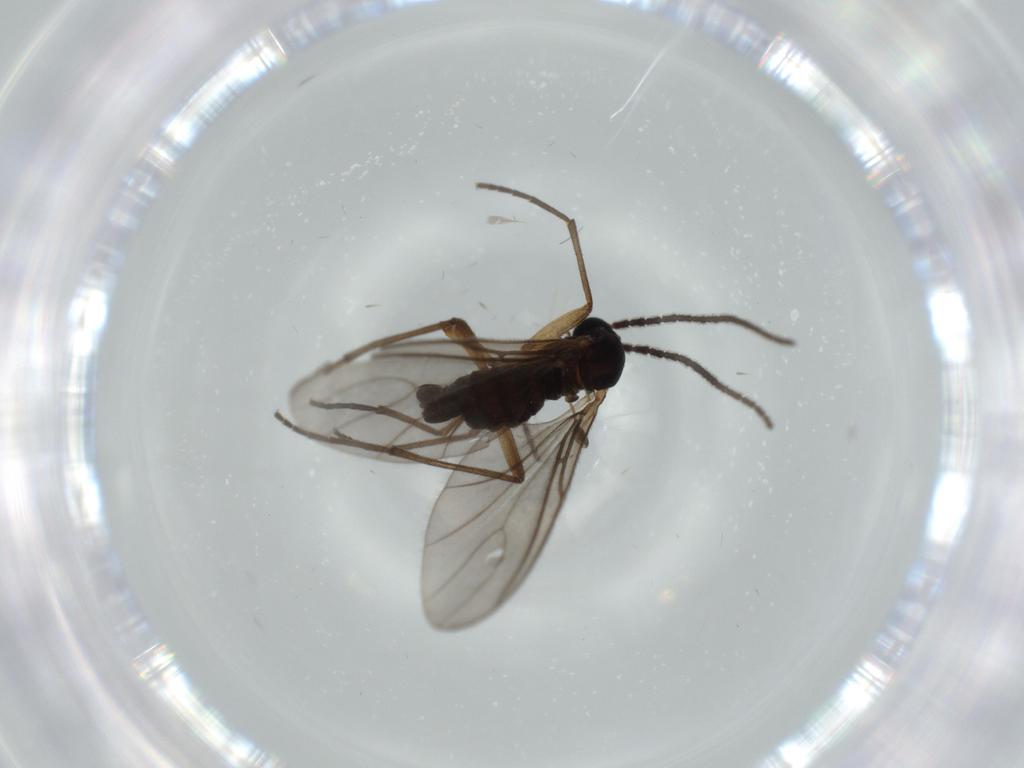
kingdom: Animalia
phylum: Arthropoda
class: Insecta
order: Diptera
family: Sciaridae
